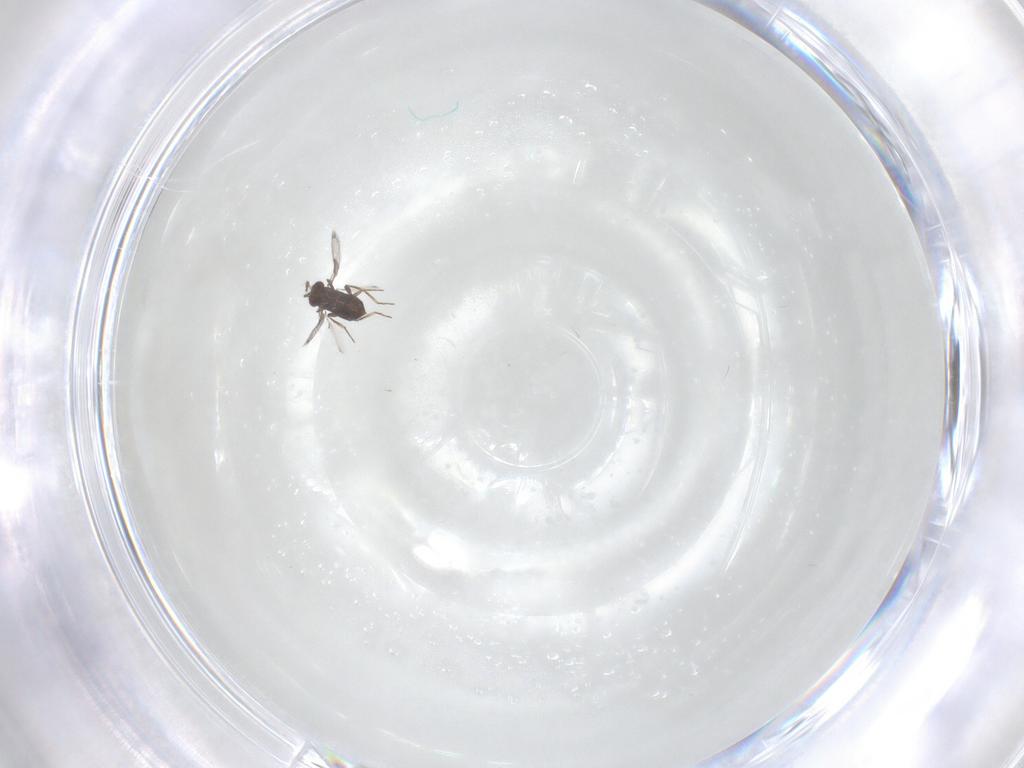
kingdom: Animalia
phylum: Arthropoda
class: Insecta
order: Hymenoptera
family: Trichogrammatidae
